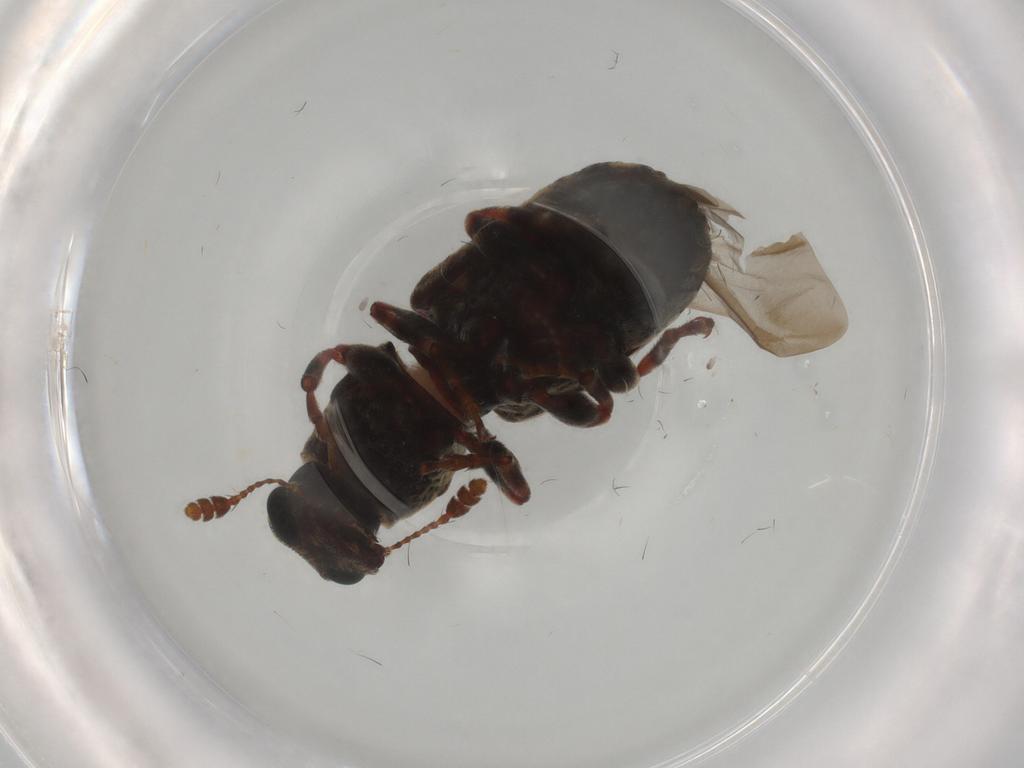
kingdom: Animalia
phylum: Arthropoda
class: Insecta
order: Coleoptera
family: Anthribidae
